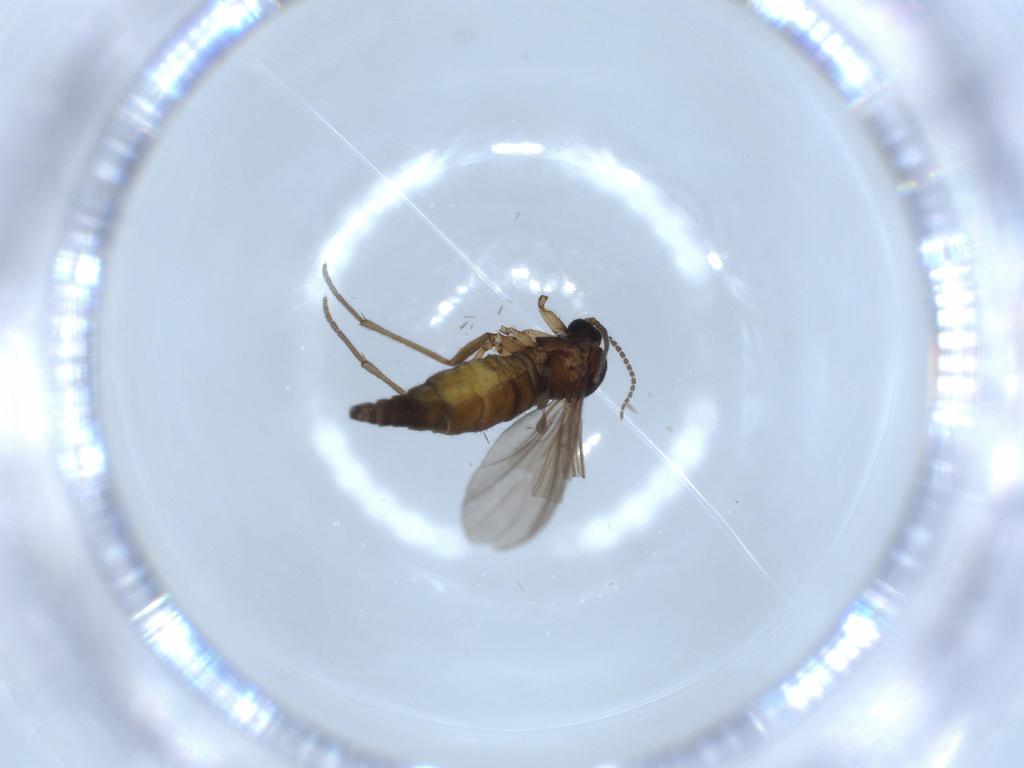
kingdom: Animalia
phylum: Arthropoda
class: Insecta
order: Diptera
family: Sciaridae
